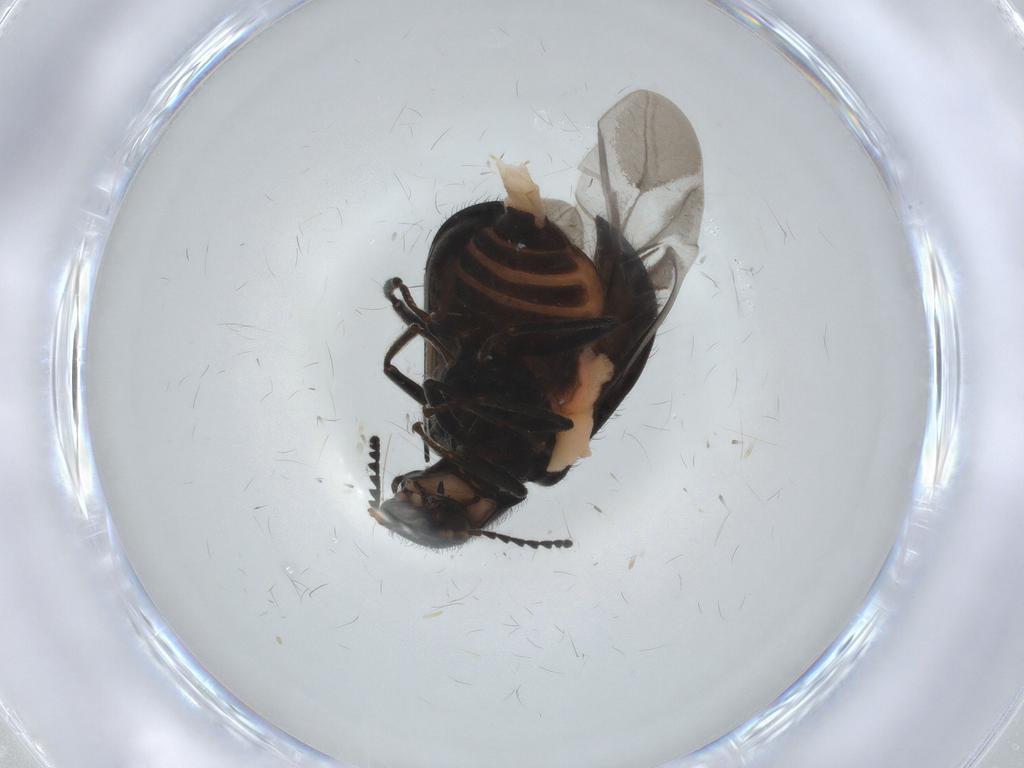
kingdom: Animalia
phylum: Arthropoda
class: Insecta
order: Coleoptera
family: Melyridae
